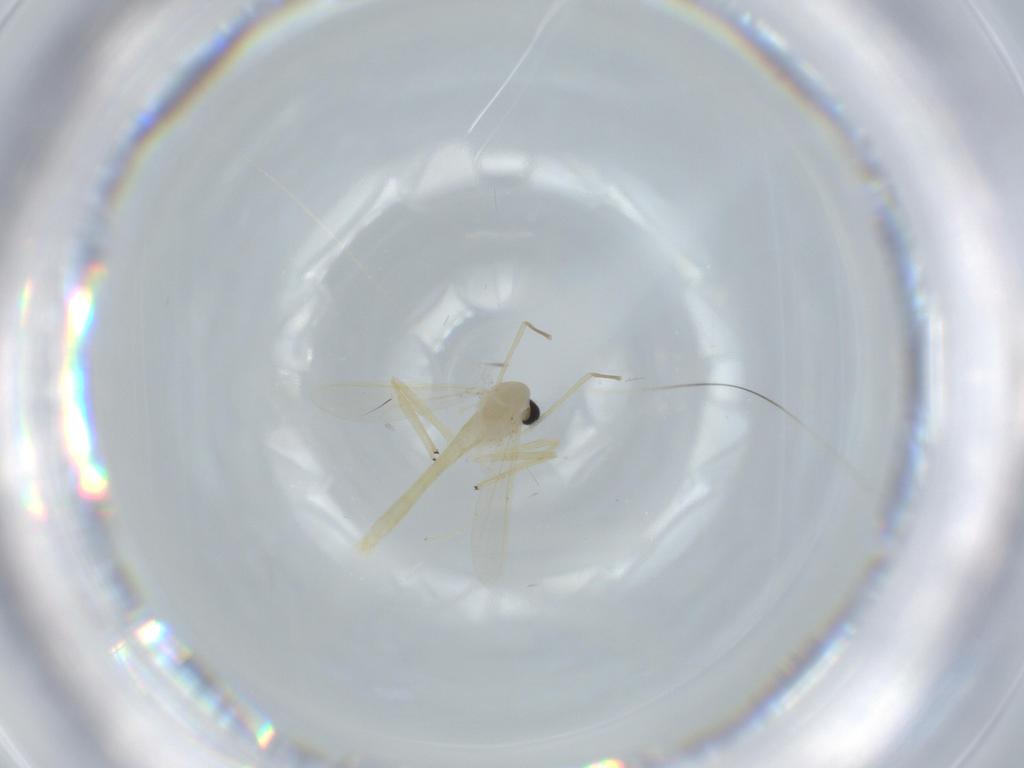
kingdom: Animalia
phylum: Arthropoda
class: Insecta
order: Diptera
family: Chironomidae
